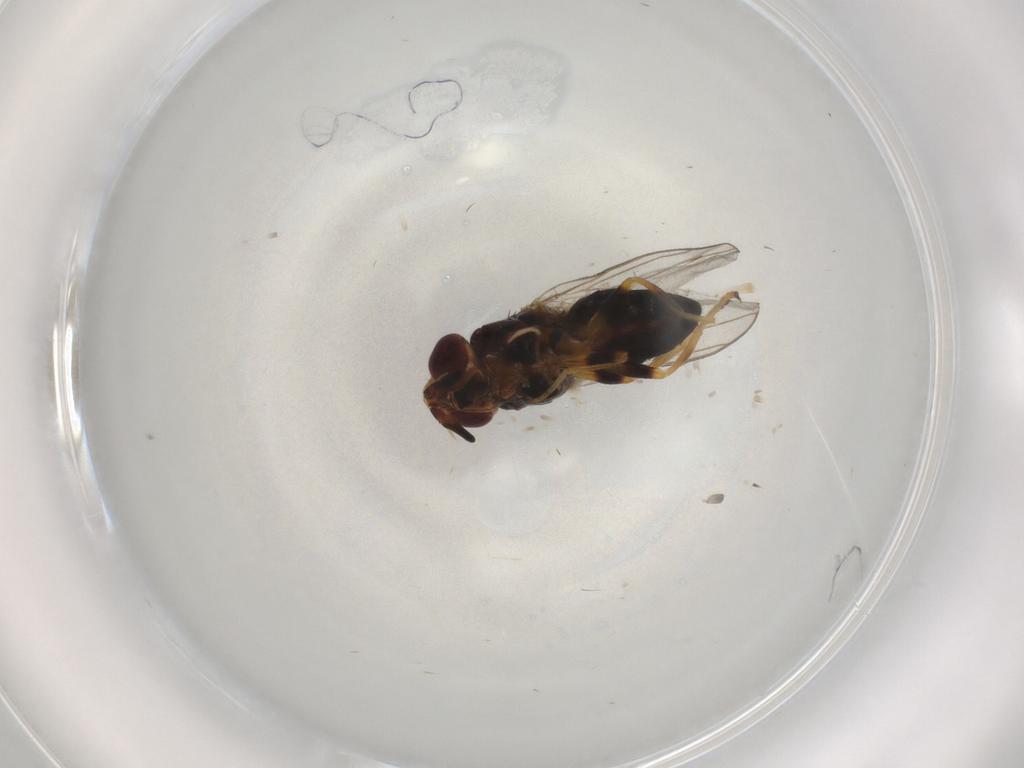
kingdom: Animalia
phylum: Arthropoda
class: Insecta
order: Diptera
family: Chloropidae
